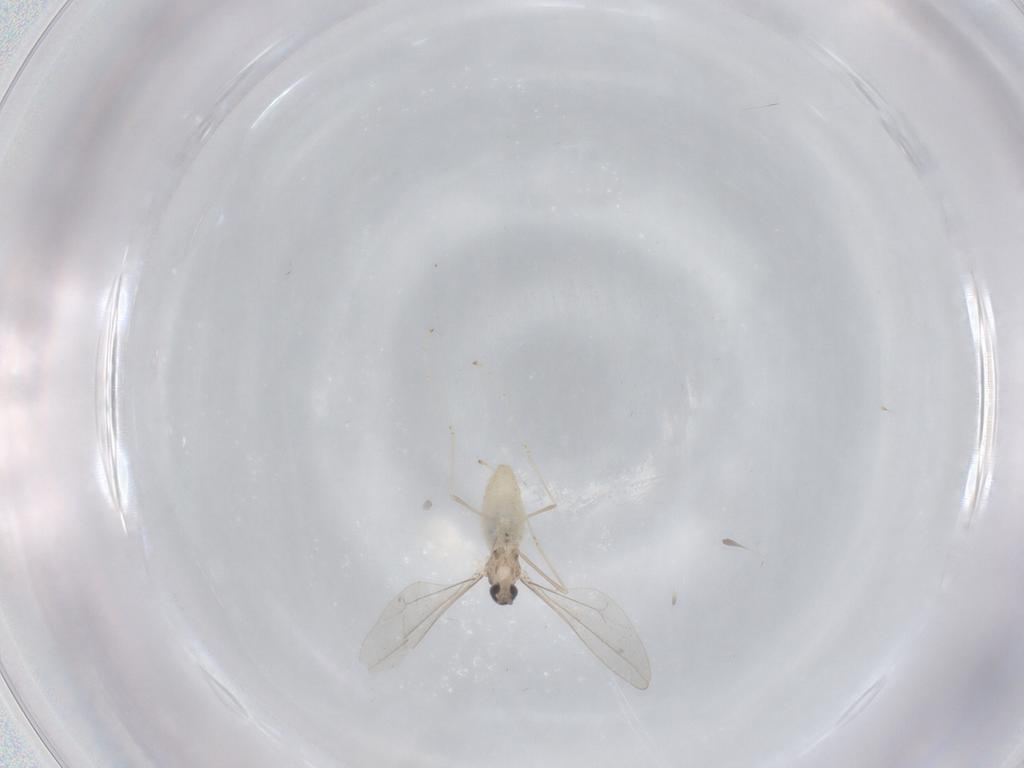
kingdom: Animalia
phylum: Arthropoda
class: Insecta
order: Diptera
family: Cecidomyiidae
